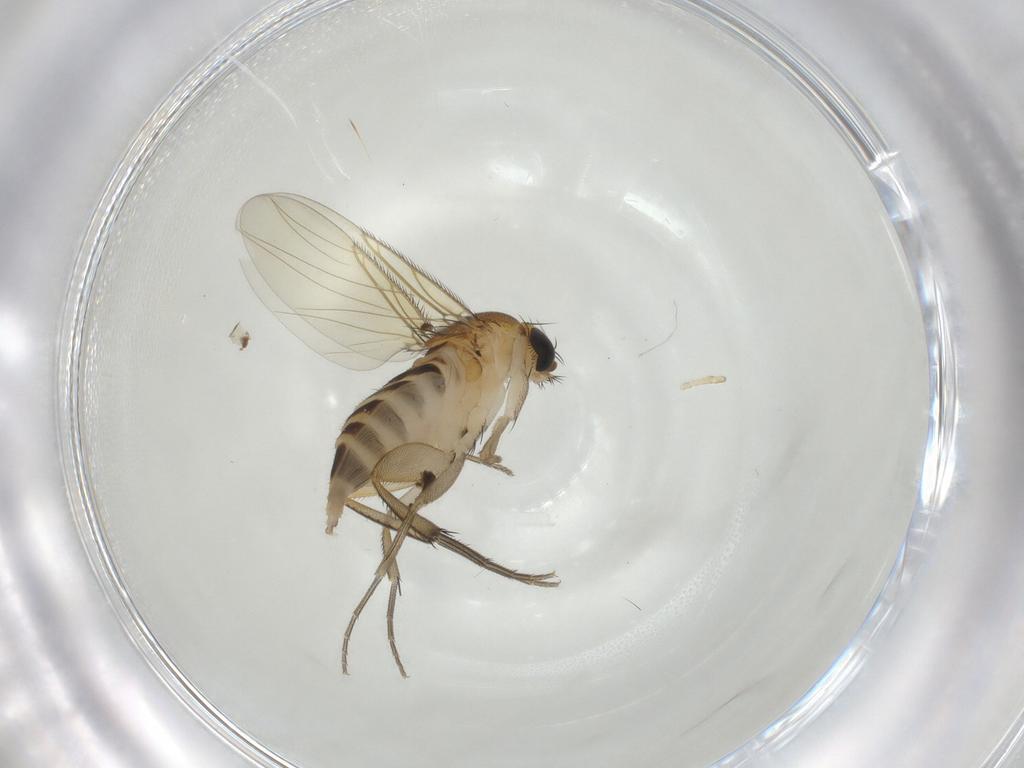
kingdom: Animalia
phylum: Arthropoda
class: Insecta
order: Diptera
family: Phoridae
